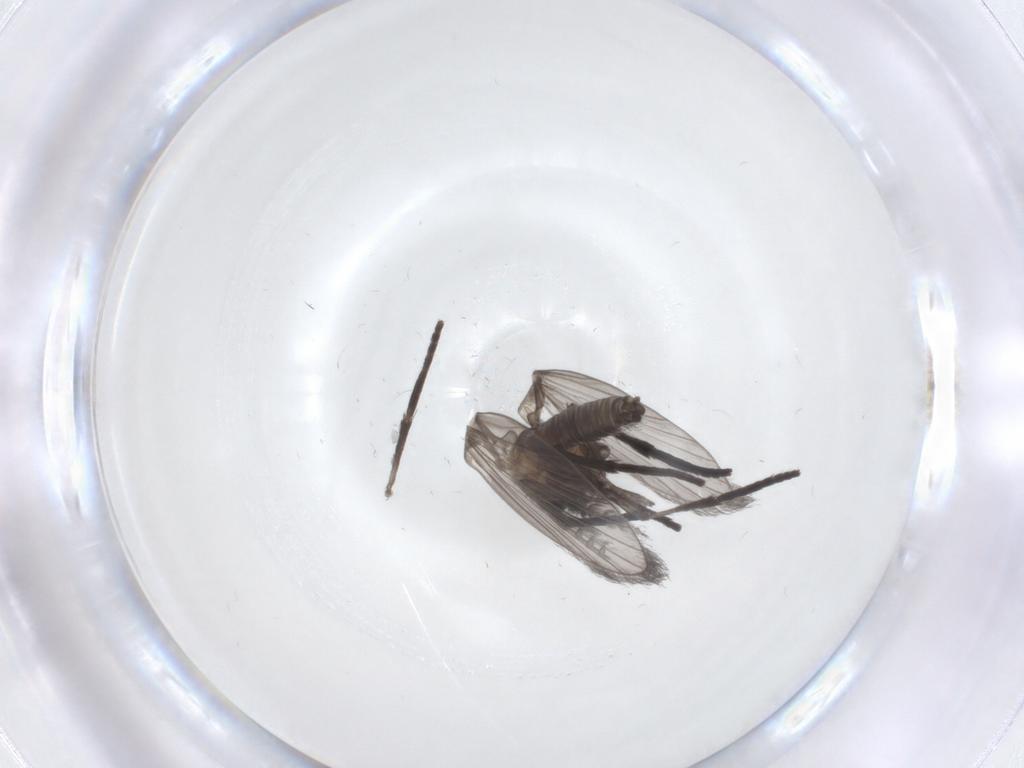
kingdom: Animalia
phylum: Arthropoda
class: Insecta
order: Diptera
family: Psychodidae
